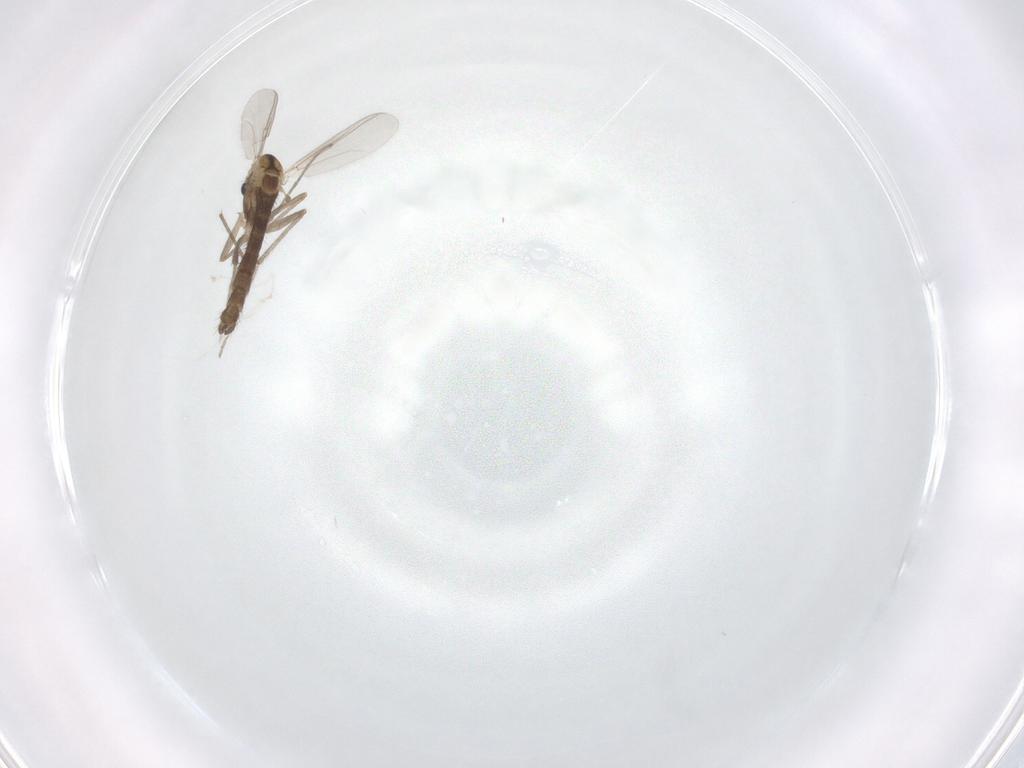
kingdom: Animalia
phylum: Arthropoda
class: Insecta
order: Diptera
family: Chironomidae
